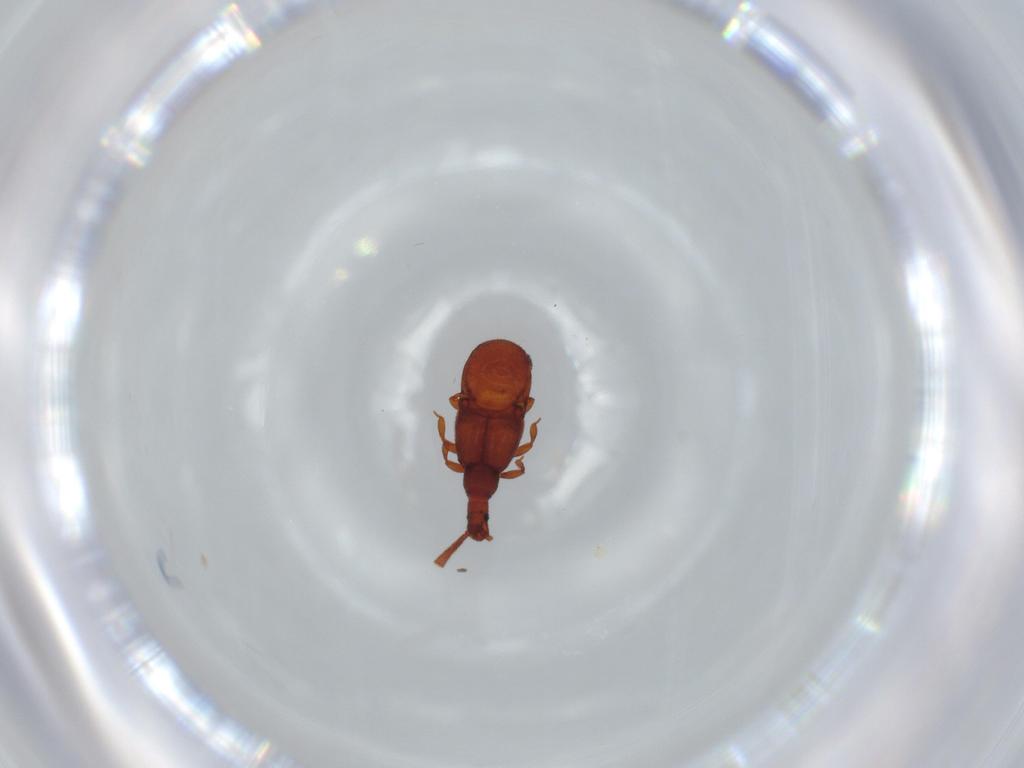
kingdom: Animalia
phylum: Arthropoda
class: Insecta
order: Coleoptera
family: Staphylinidae
